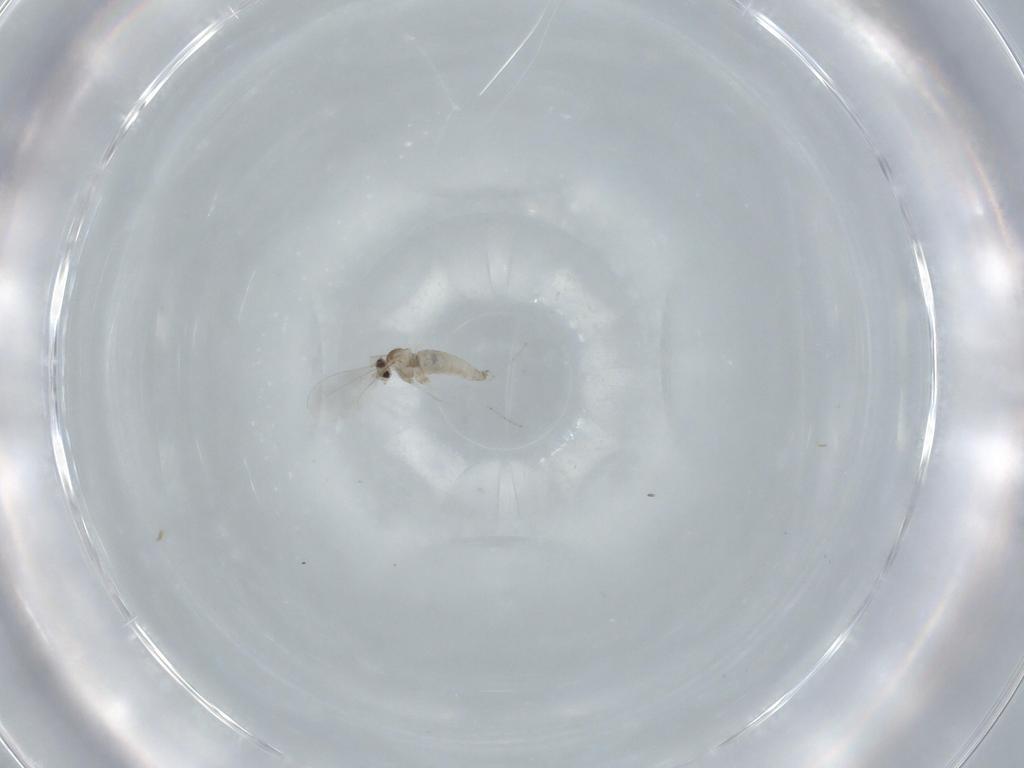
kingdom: Animalia
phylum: Arthropoda
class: Insecta
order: Diptera
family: Cecidomyiidae
